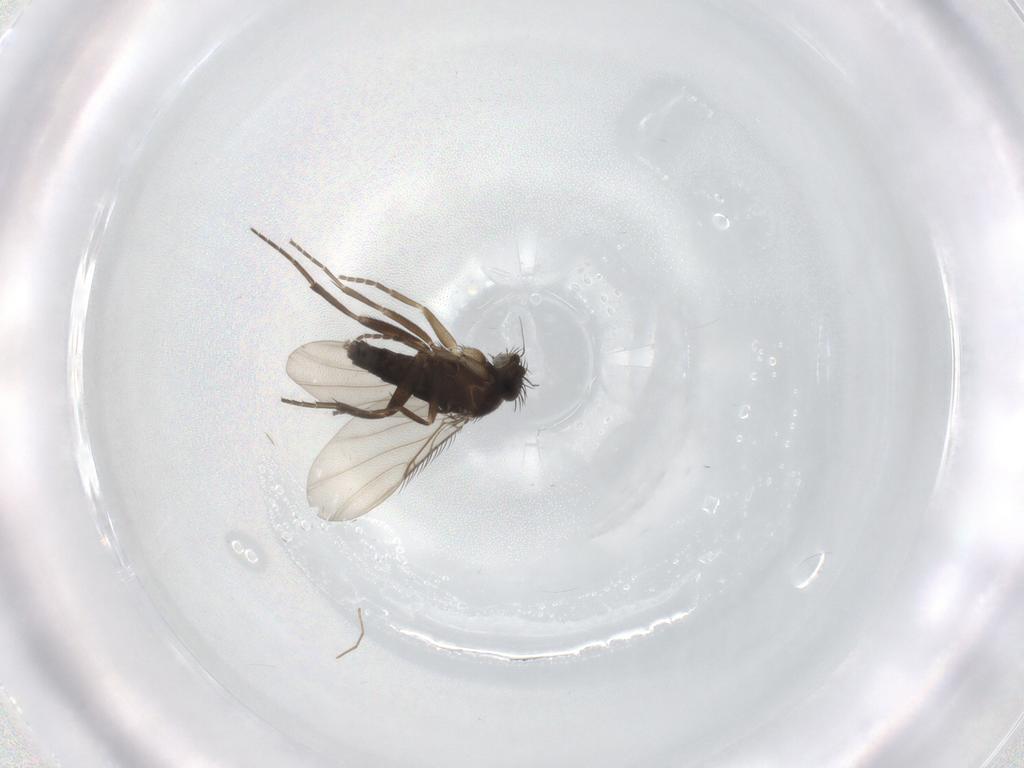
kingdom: Animalia
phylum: Arthropoda
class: Insecta
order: Diptera
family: Phoridae
